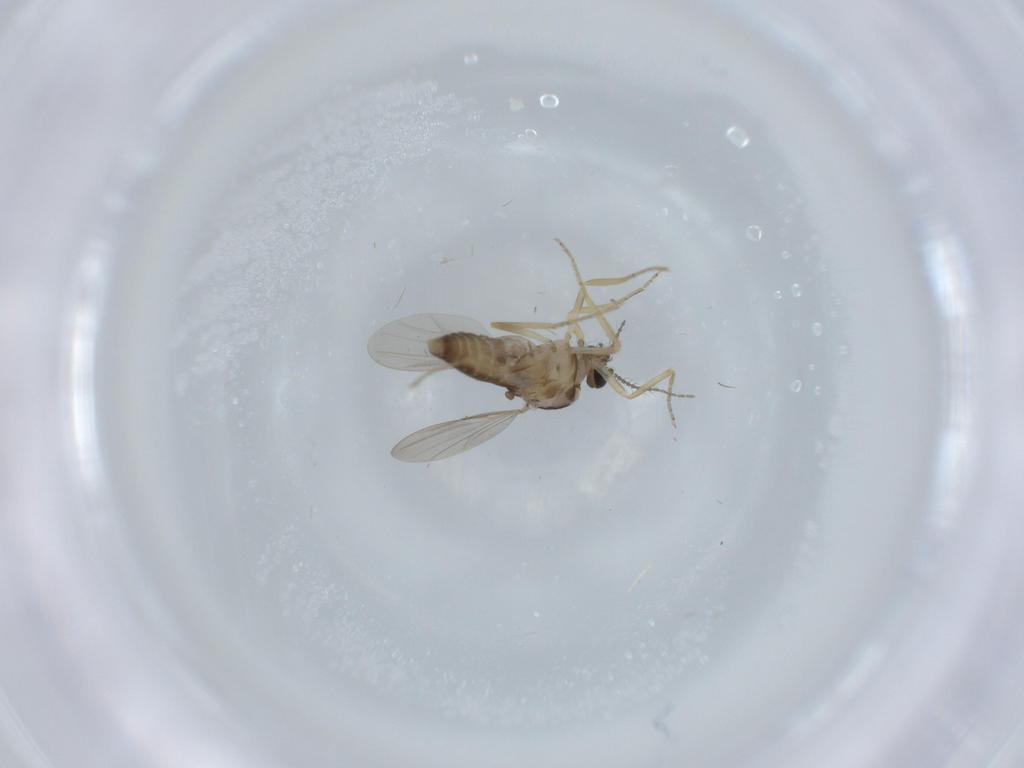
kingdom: Animalia
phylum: Arthropoda
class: Insecta
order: Diptera
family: Ceratopogonidae
